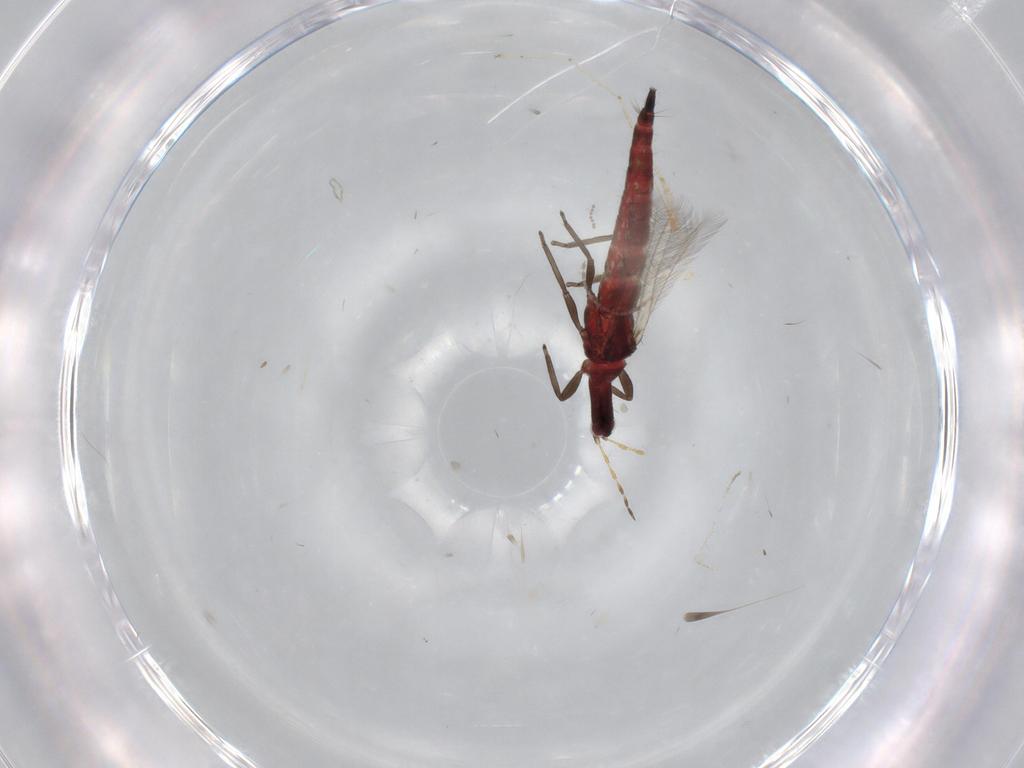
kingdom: Animalia
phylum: Arthropoda
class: Insecta
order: Thysanoptera
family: Phlaeothripidae
